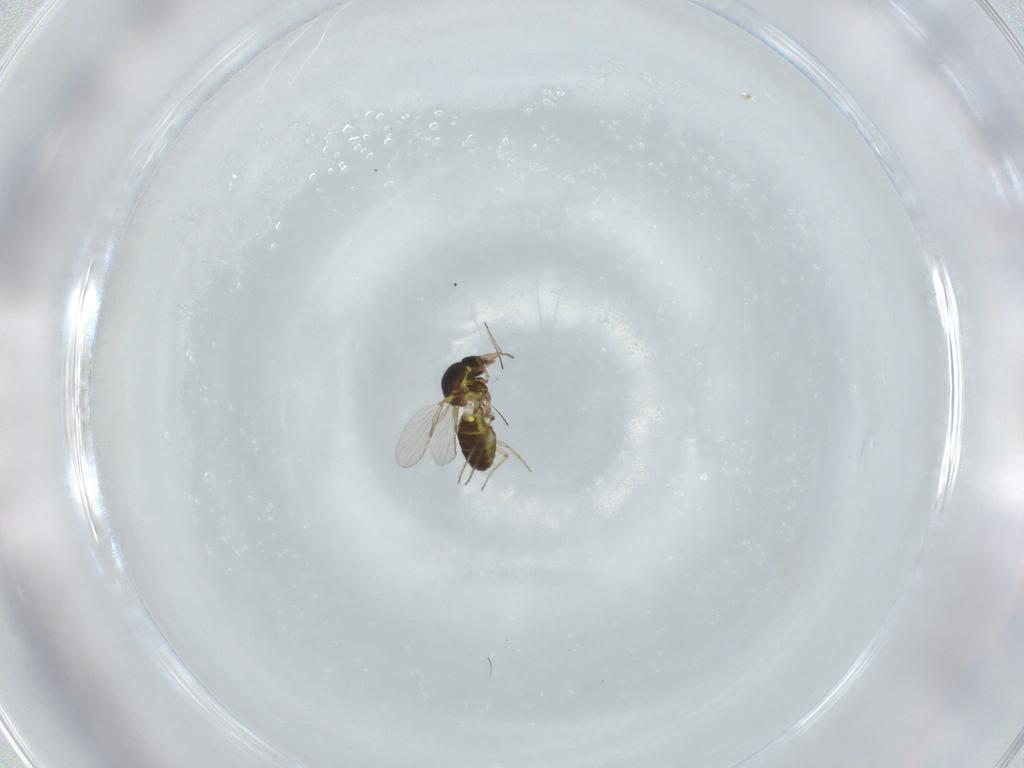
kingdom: Animalia
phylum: Arthropoda
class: Insecta
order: Diptera
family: Ceratopogonidae
